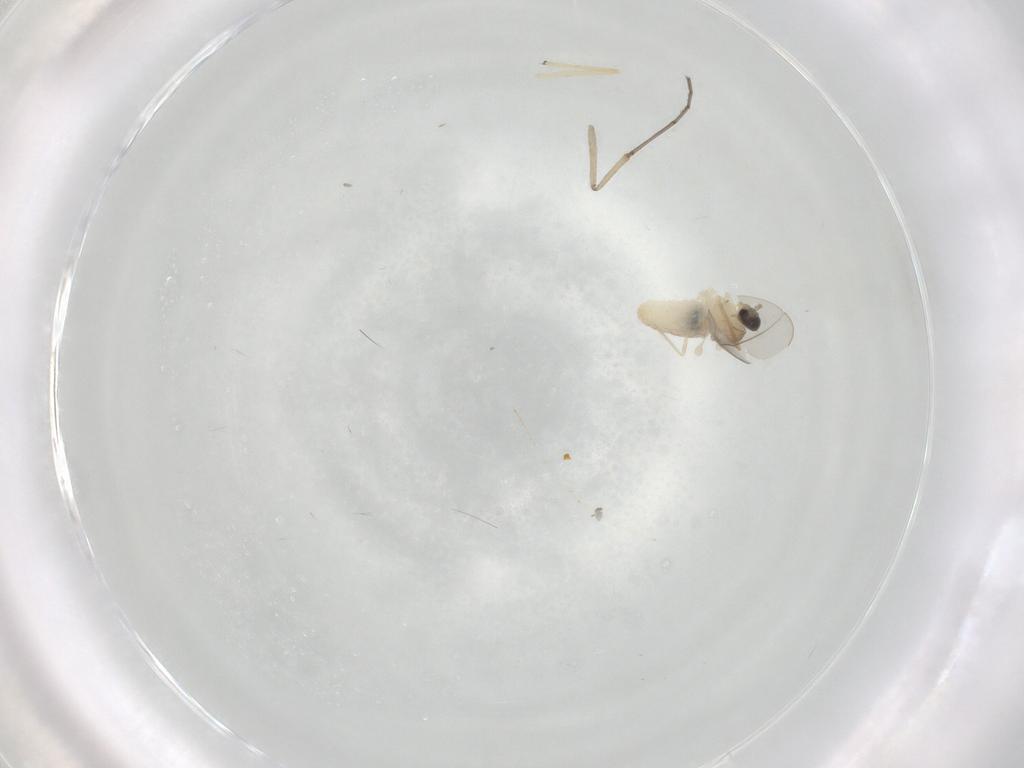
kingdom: Animalia
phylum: Arthropoda
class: Insecta
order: Diptera
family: Cecidomyiidae
